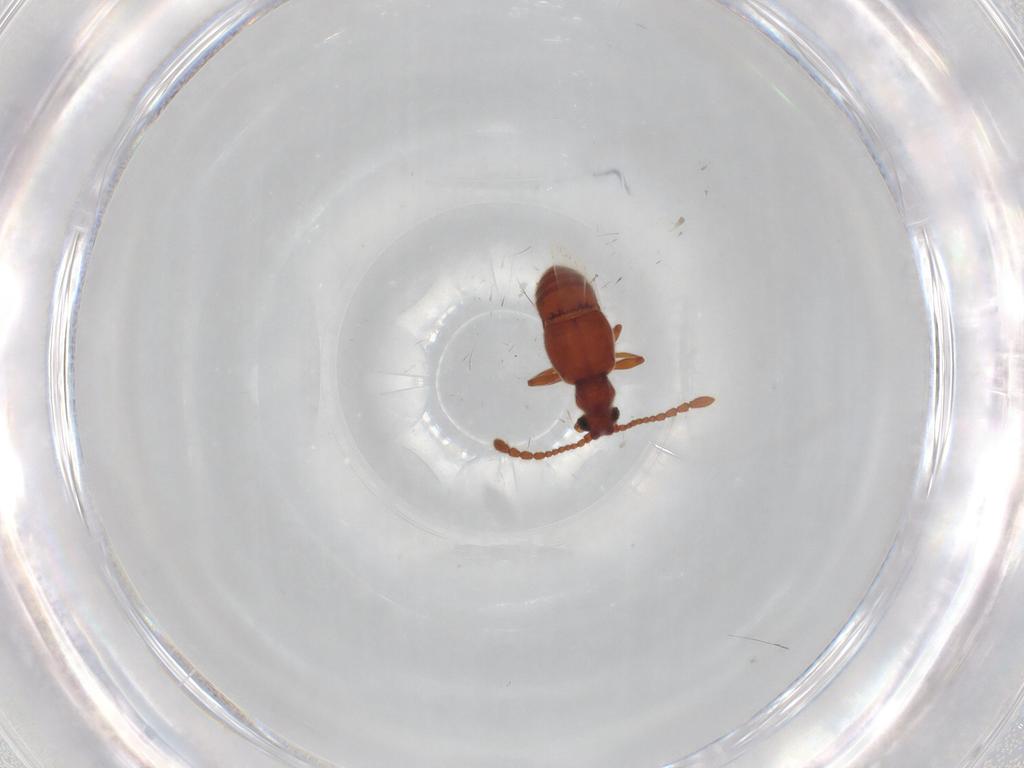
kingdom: Animalia
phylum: Arthropoda
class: Insecta
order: Coleoptera
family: Staphylinidae
